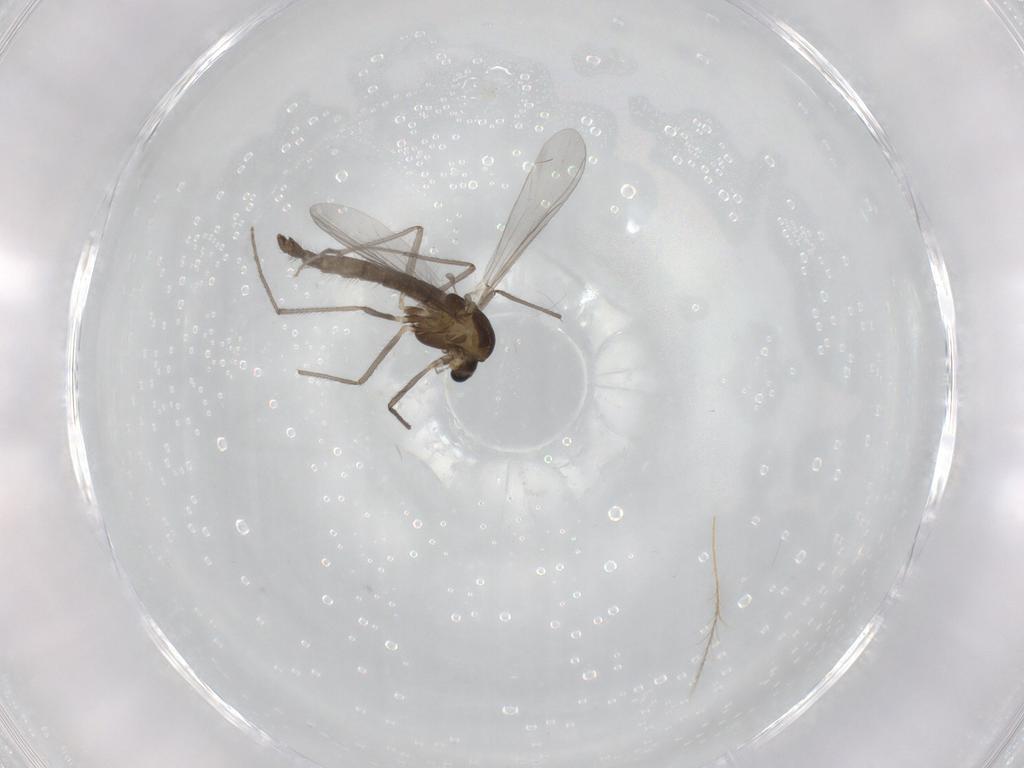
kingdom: Animalia
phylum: Arthropoda
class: Insecta
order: Diptera
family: Chironomidae
